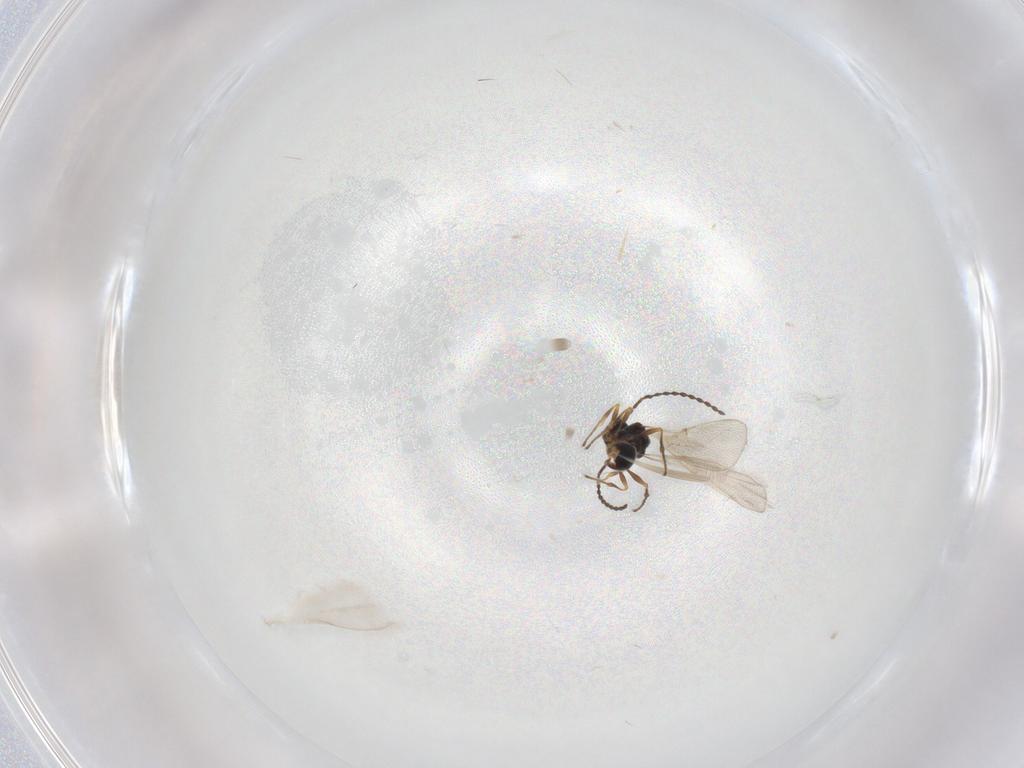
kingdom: Animalia
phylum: Arthropoda
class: Insecta
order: Hymenoptera
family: Diapriidae
